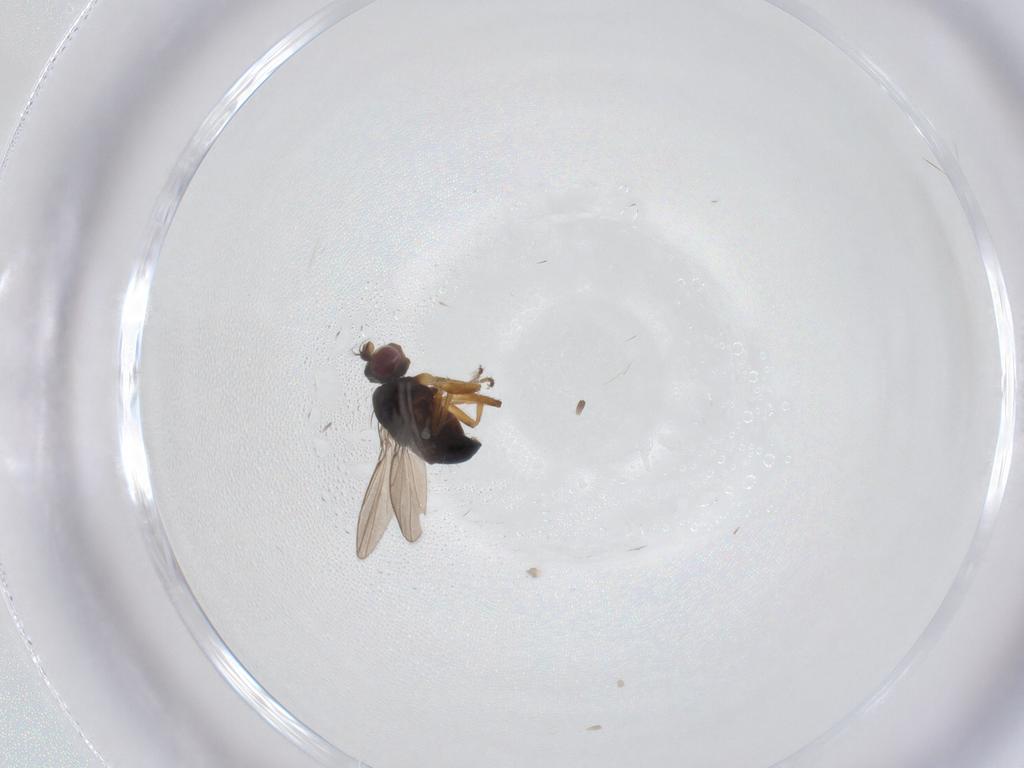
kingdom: Animalia
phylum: Arthropoda
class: Insecta
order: Diptera
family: Ephydridae
